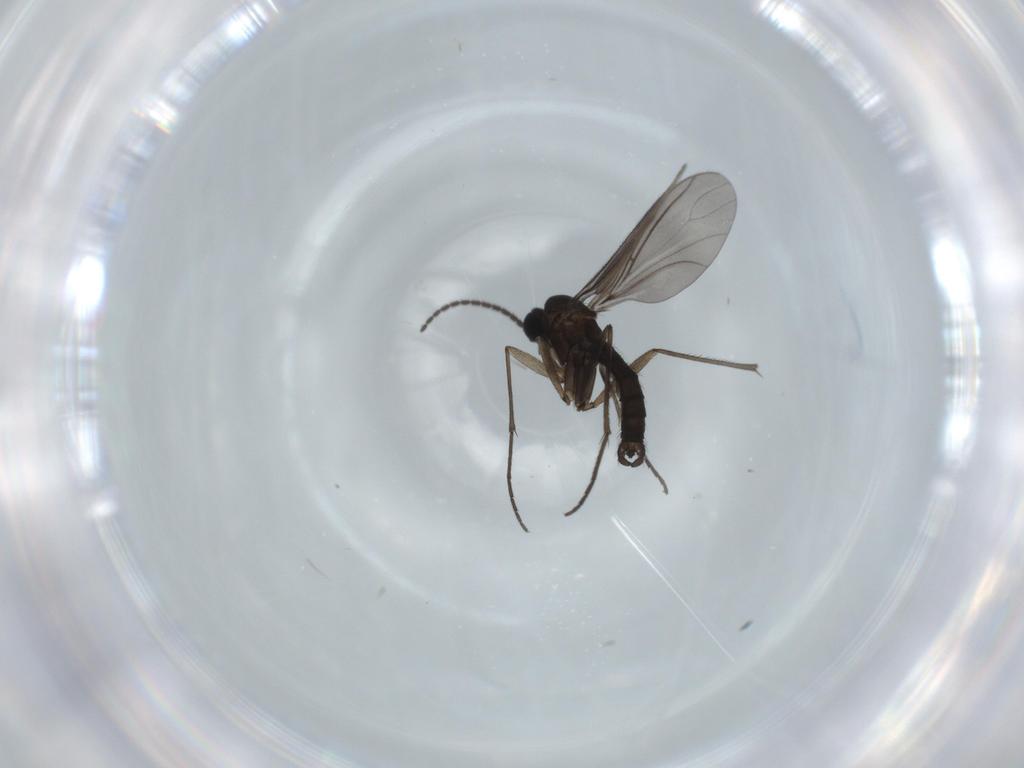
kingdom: Animalia
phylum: Arthropoda
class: Insecta
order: Diptera
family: Sciaridae
